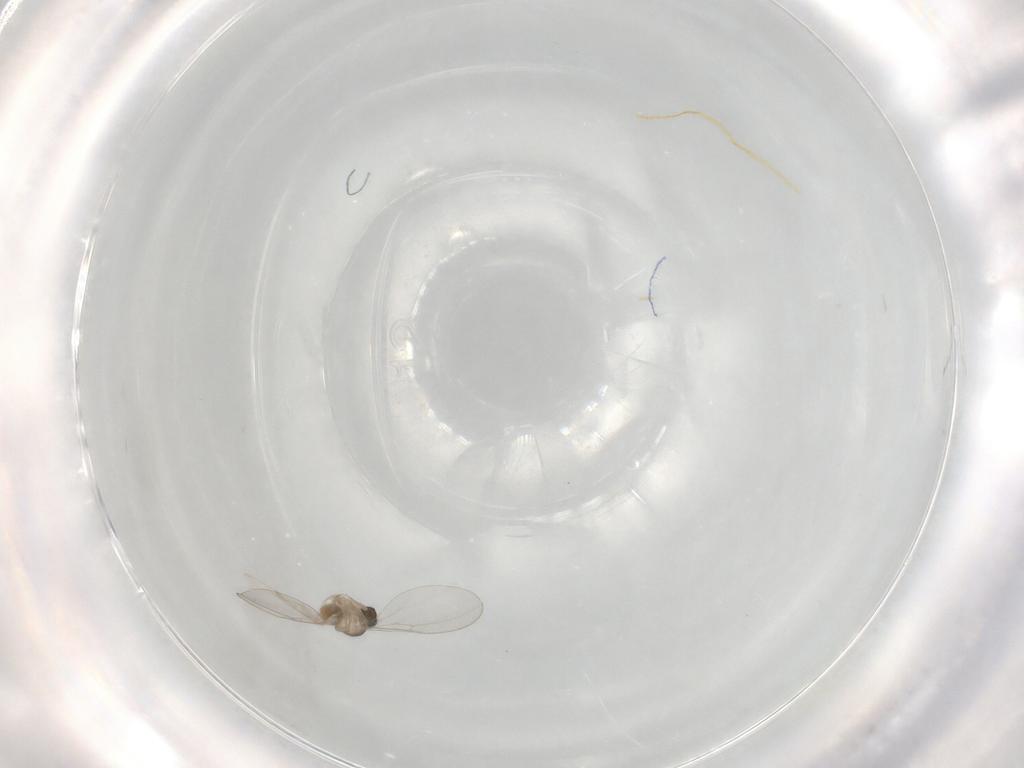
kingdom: Animalia
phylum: Arthropoda
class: Insecta
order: Diptera
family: Cecidomyiidae
